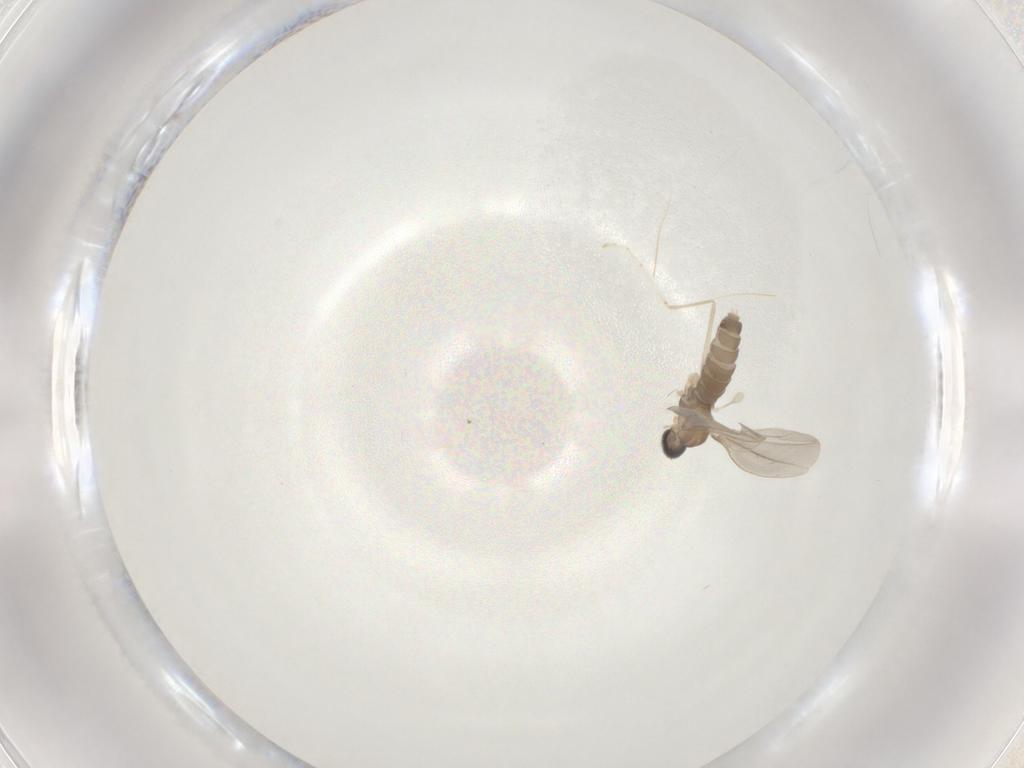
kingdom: Animalia
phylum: Arthropoda
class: Insecta
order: Diptera
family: Cecidomyiidae
